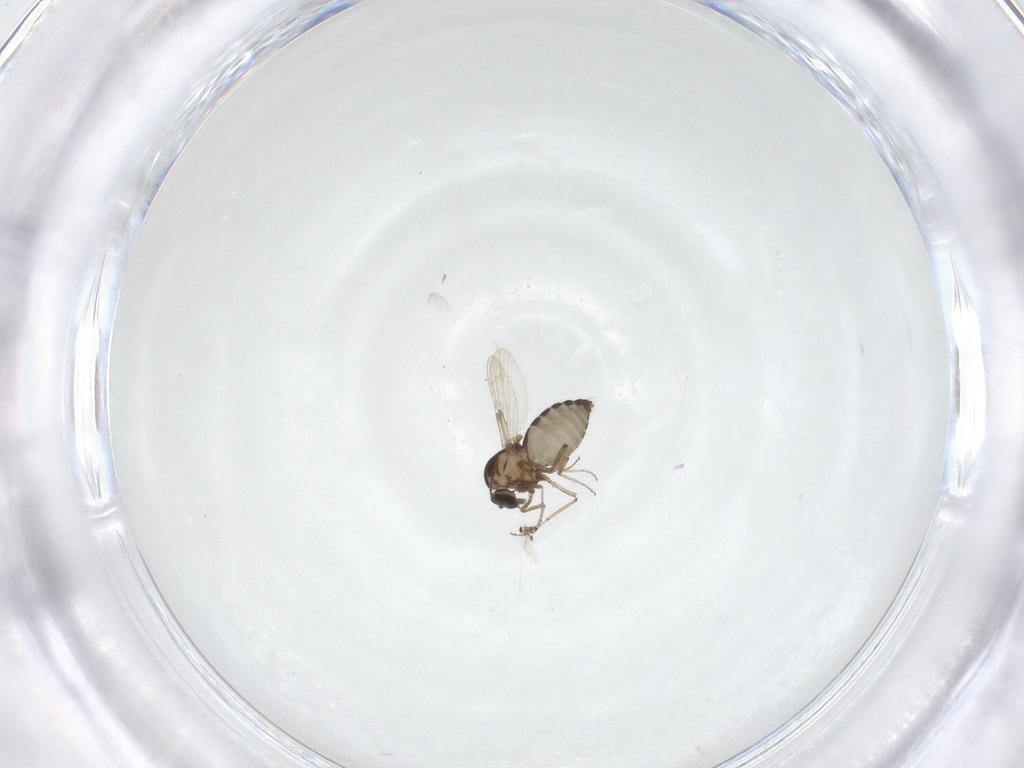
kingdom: Animalia
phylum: Arthropoda
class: Insecta
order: Diptera
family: Ceratopogonidae
